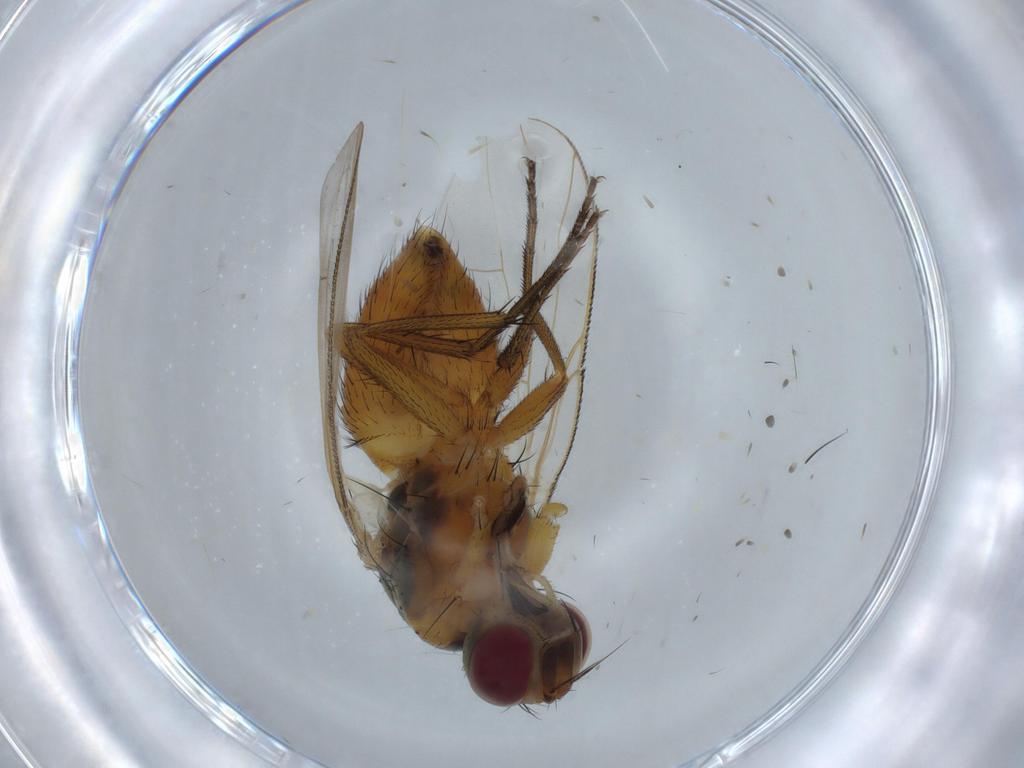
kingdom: Animalia
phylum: Arthropoda
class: Insecta
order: Diptera
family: Muscidae
